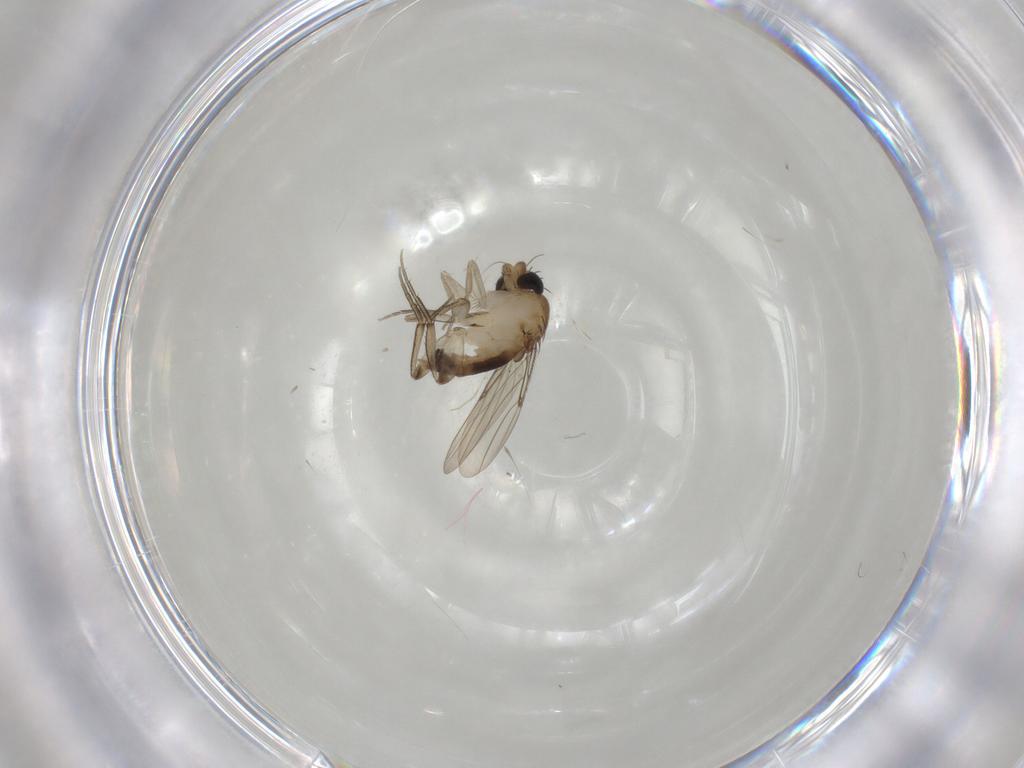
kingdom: Animalia
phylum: Arthropoda
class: Insecta
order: Diptera
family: Phoridae
